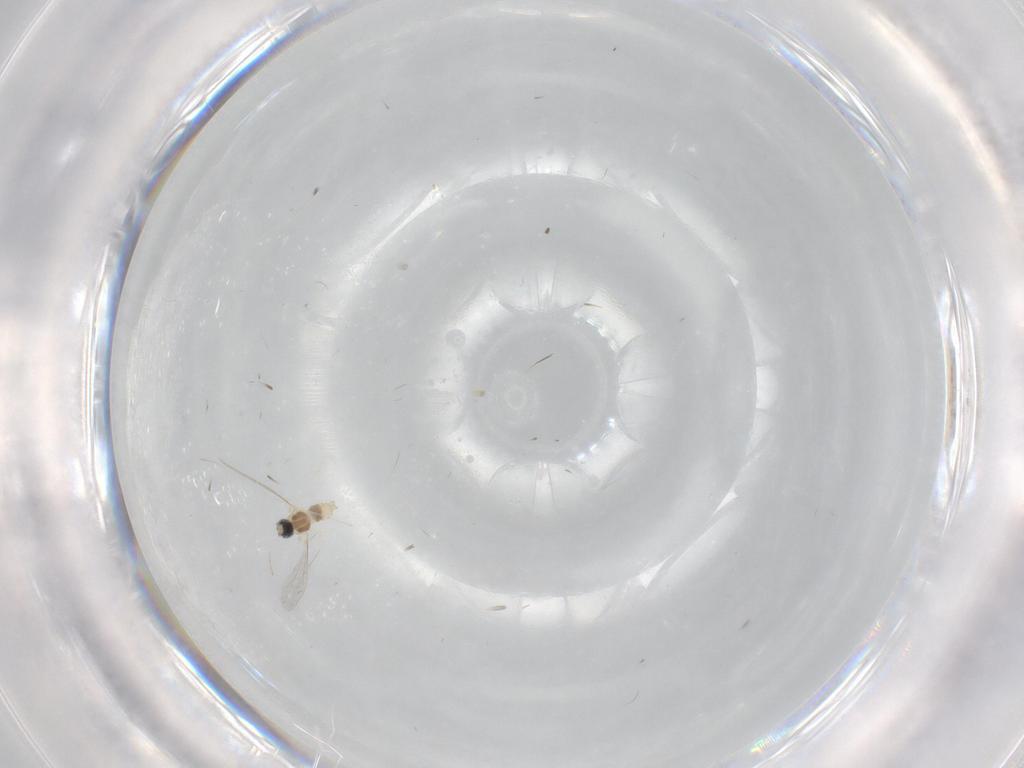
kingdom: Animalia
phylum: Arthropoda
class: Insecta
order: Diptera
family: Cecidomyiidae
